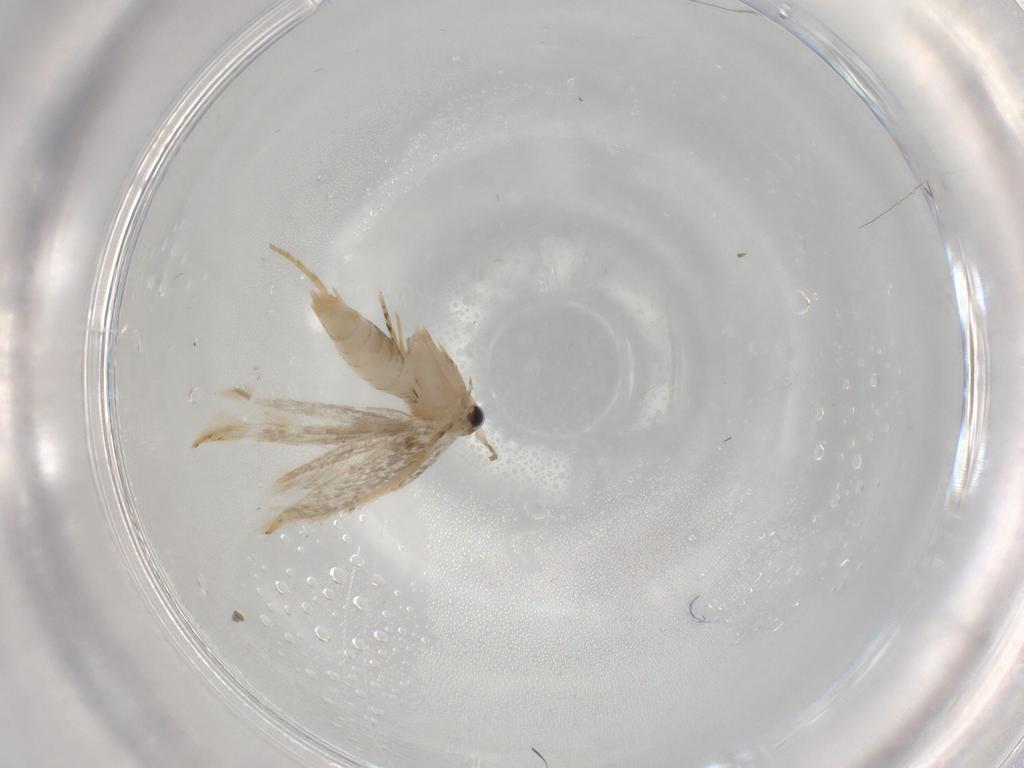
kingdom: Animalia
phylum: Arthropoda
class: Insecta
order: Lepidoptera
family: Tineidae
